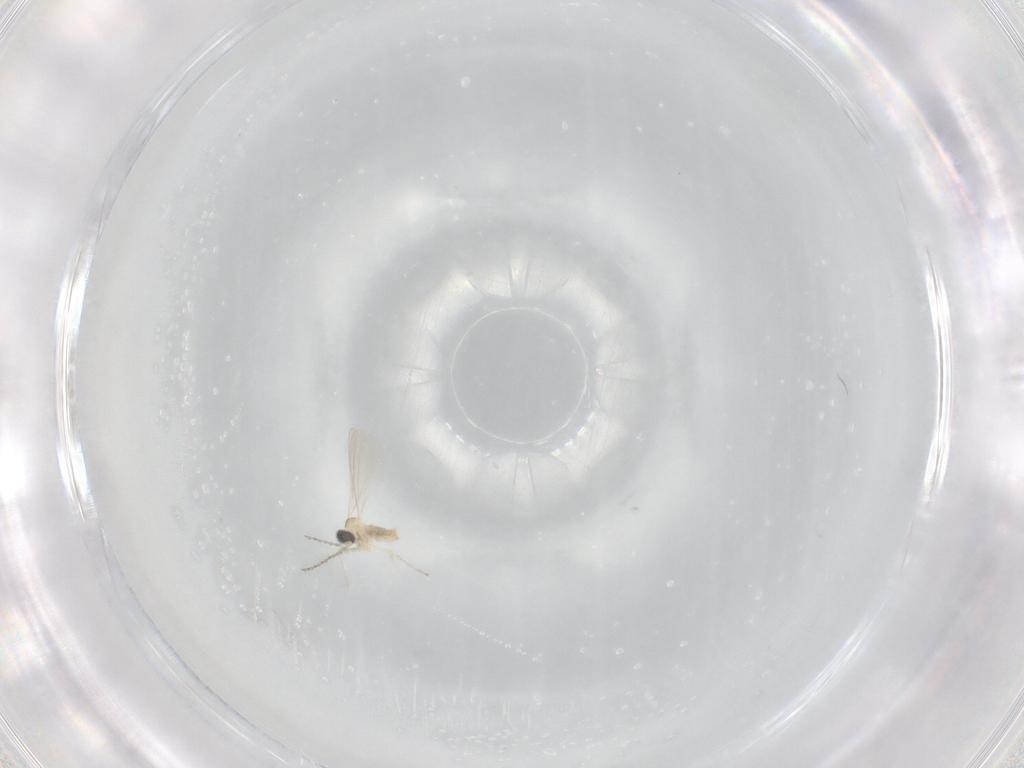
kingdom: Animalia
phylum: Arthropoda
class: Insecta
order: Diptera
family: Cecidomyiidae
